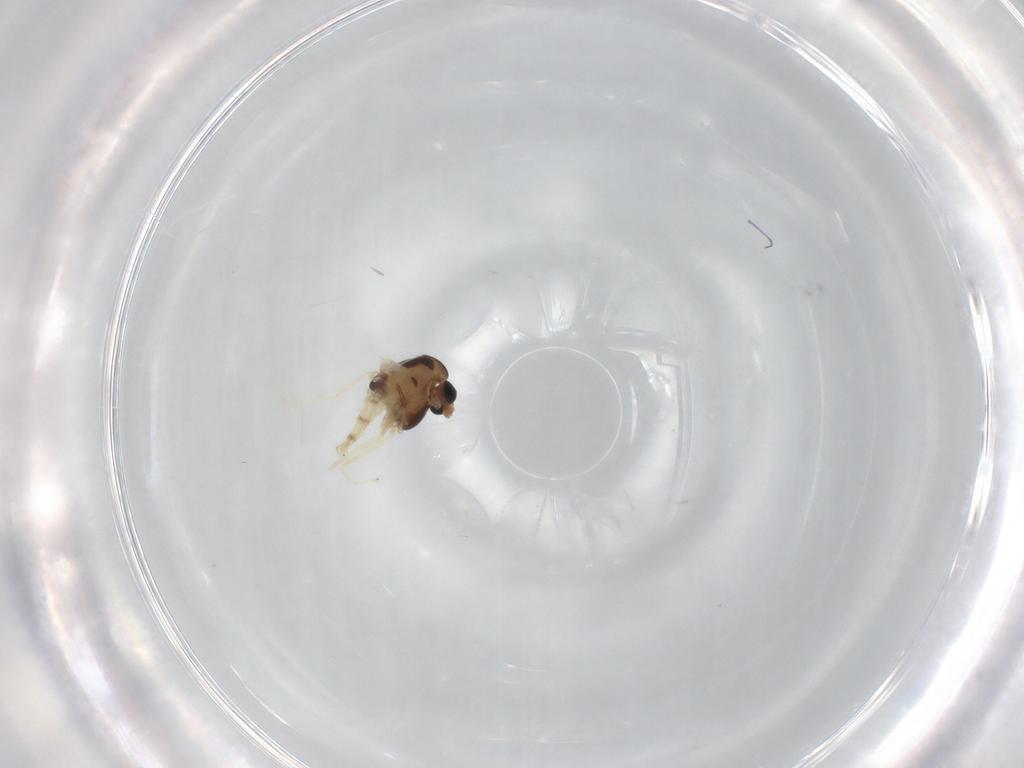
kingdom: Animalia
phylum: Arthropoda
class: Insecta
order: Diptera
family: Chironomidae
